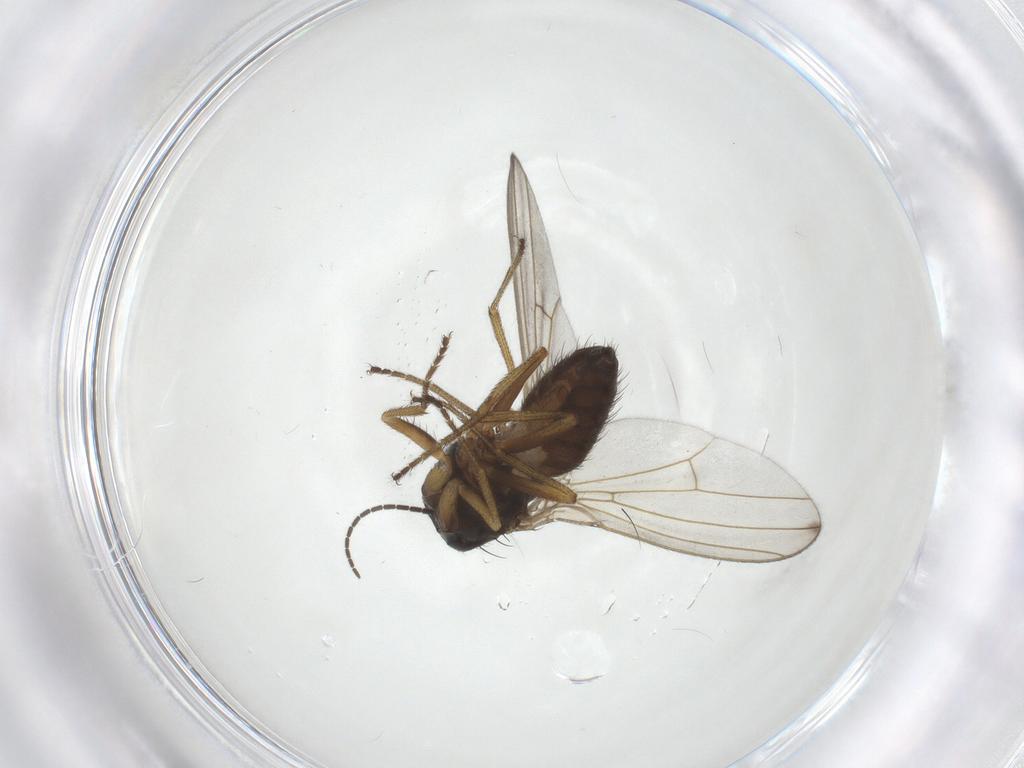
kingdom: Animalia
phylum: Arthropoda
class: Insecta
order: Diptera
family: Drosophilidae
